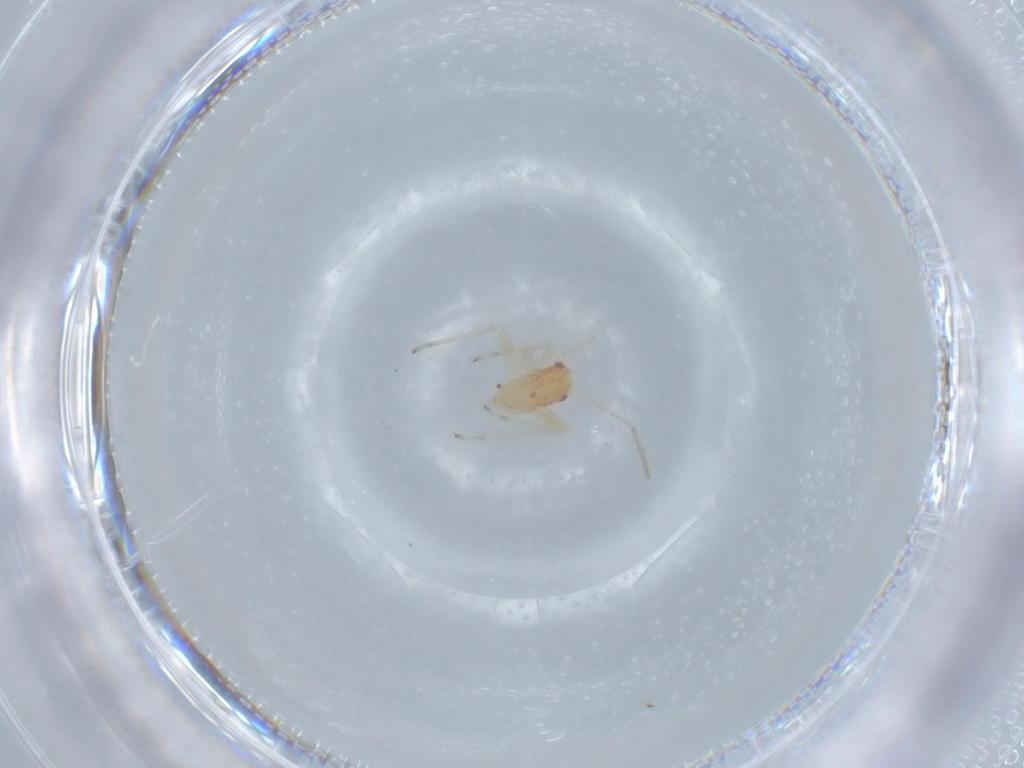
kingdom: Animalia
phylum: Arthropoda
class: Insecta
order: Hemiptera
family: Miridae
